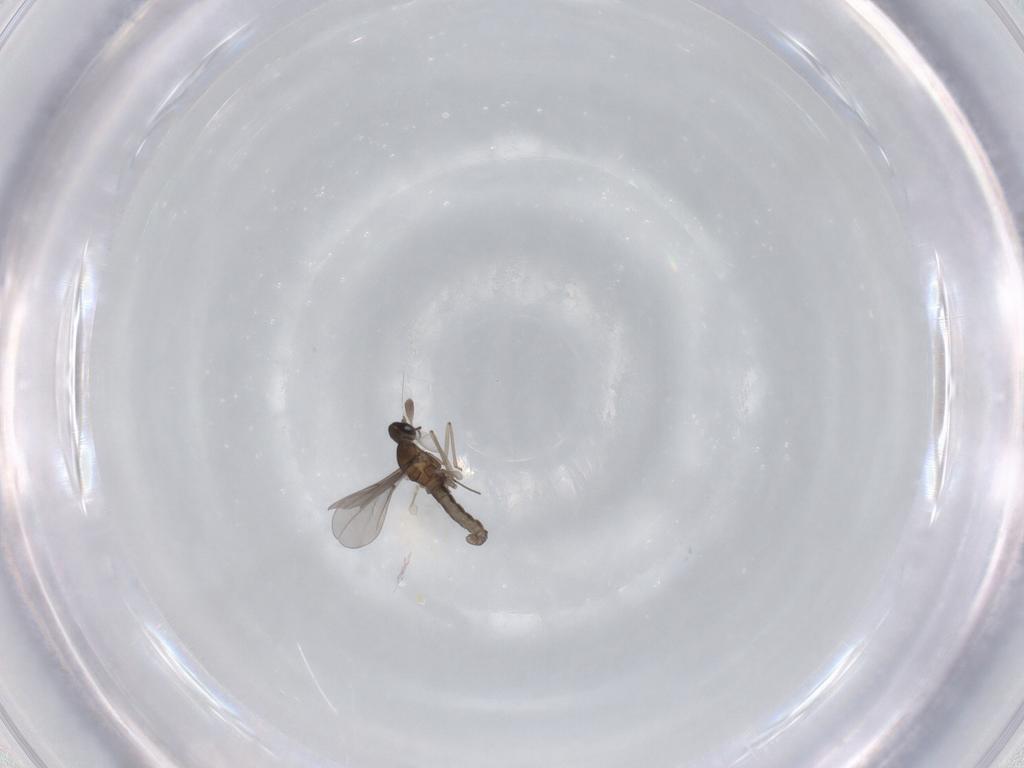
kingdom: Animalia
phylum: Arthropoda
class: Insecta
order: Diptera
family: Cecidomyiidae
